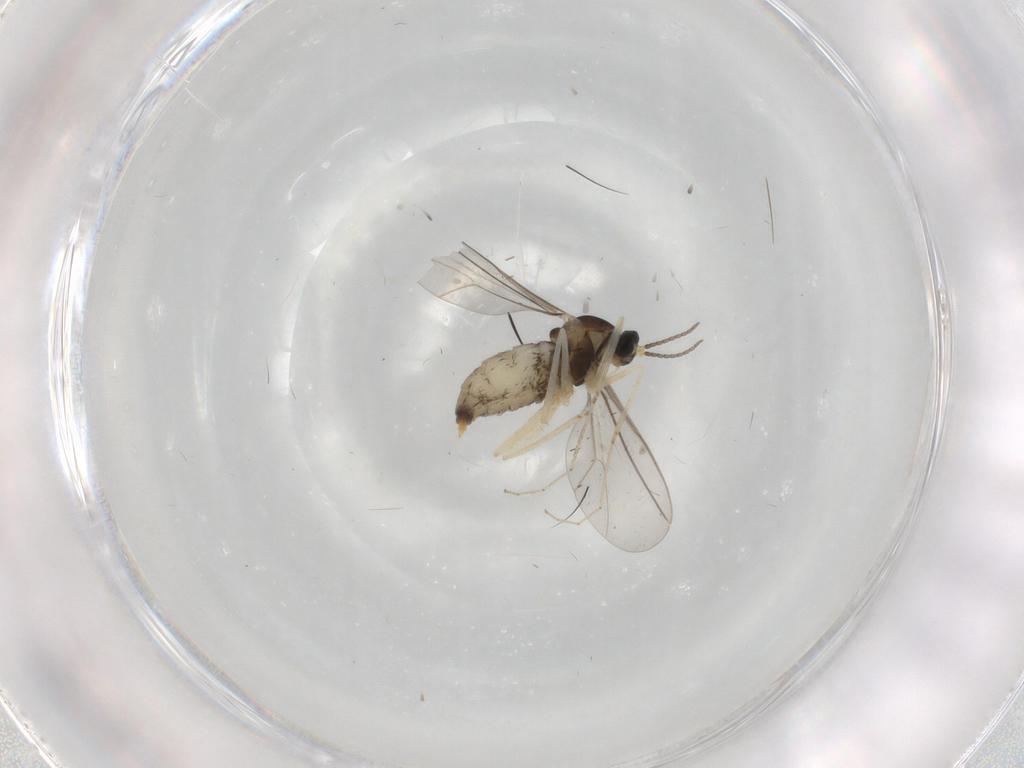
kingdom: Animalia
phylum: Arthropoda
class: Insecta
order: Diptera
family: Cecidomyiidae
